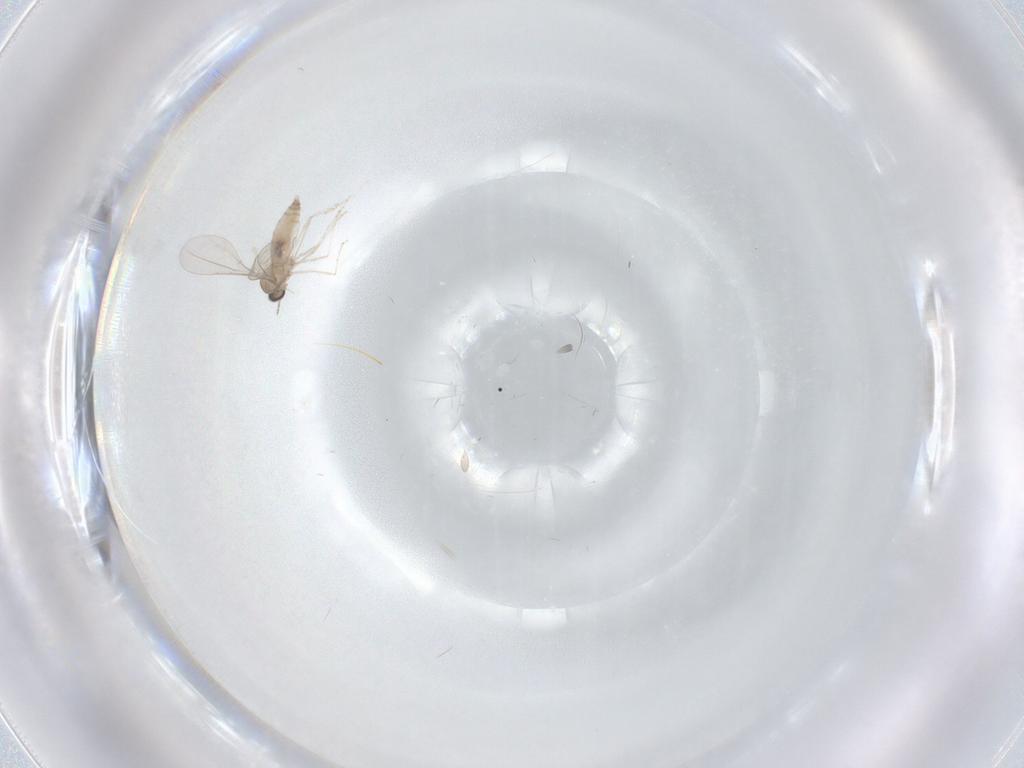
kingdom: Animalia
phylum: Arthropoda
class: Insecta
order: Diptera
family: Cecidomyiidae
